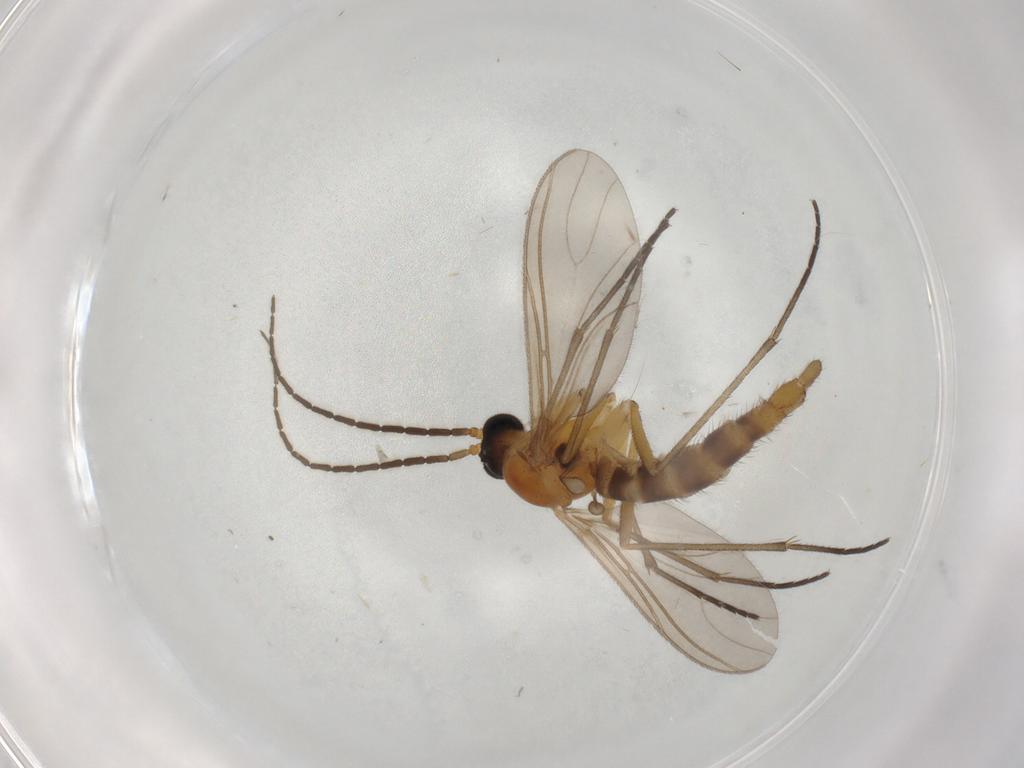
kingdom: Animalia
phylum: Arthropoda
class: Insecta
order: Diptera
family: Sciaridae
